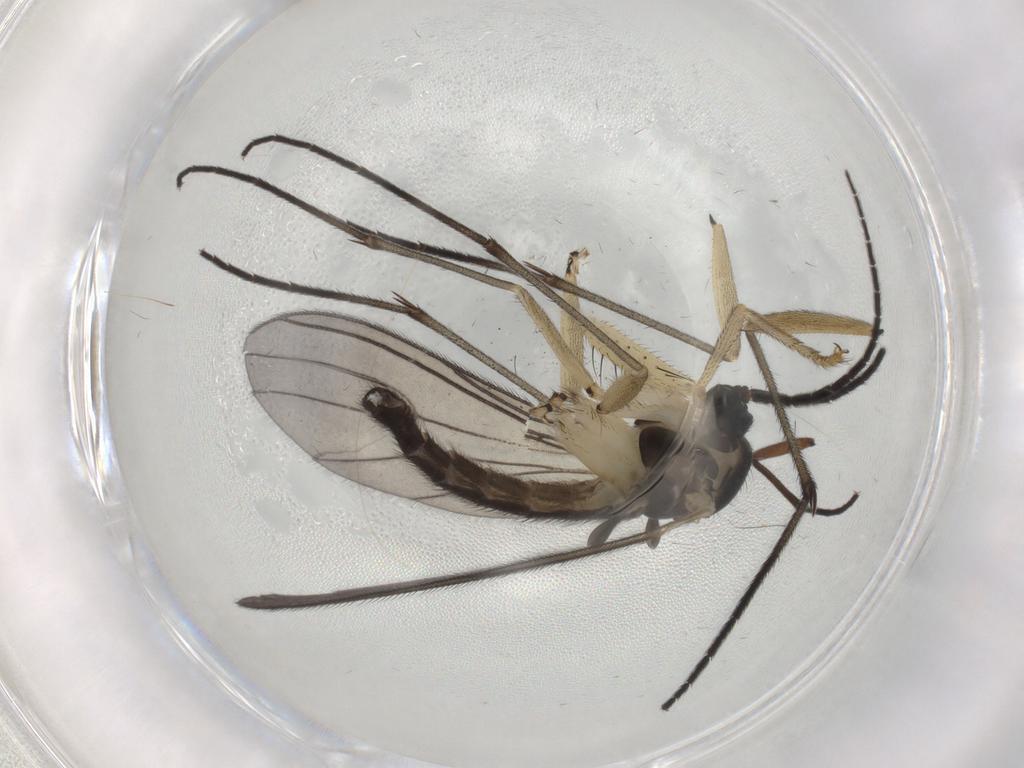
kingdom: Animalia
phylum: Arthropoda
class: Insecta
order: Diptera
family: Sciaridae
